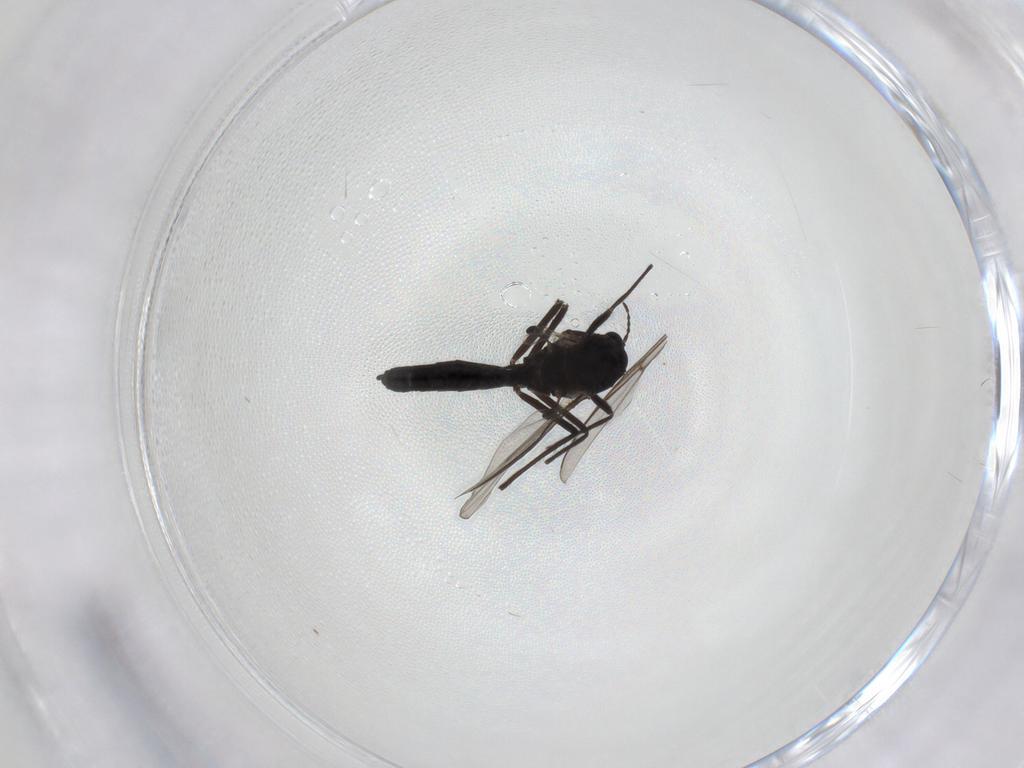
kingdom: Animalia
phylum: Arthropoda
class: Insecta
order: Diptera
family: Chironomidae
